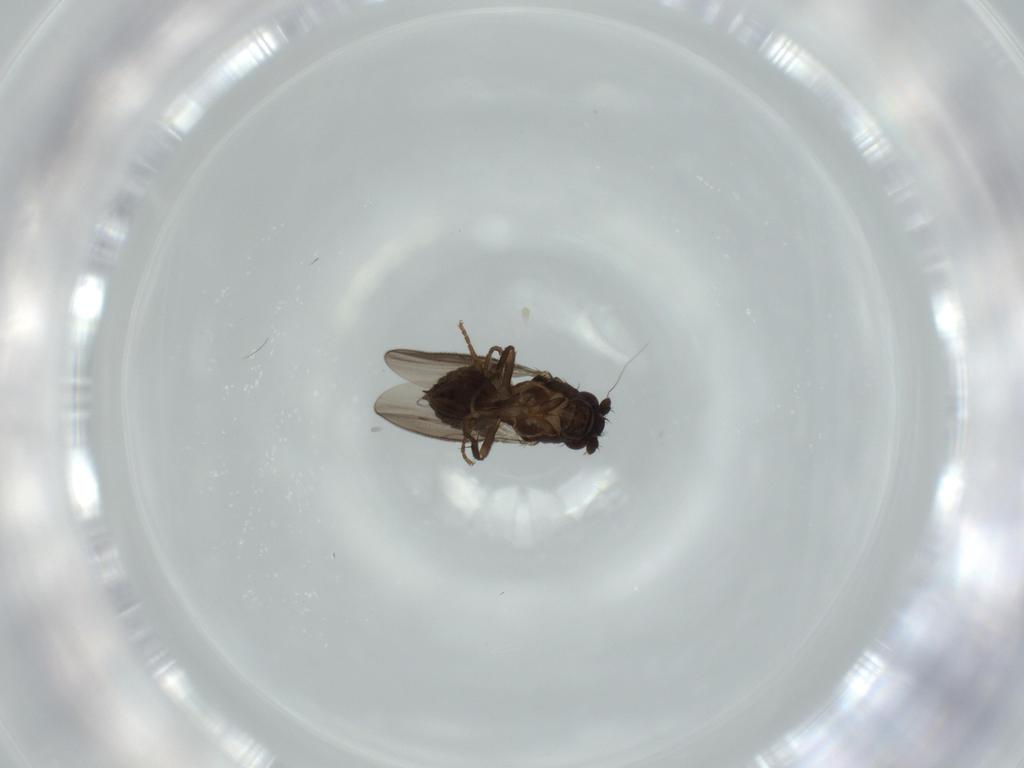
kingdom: Animalia
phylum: Arthropoda
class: Insecta
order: Diptera
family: Sphaeroceridae
